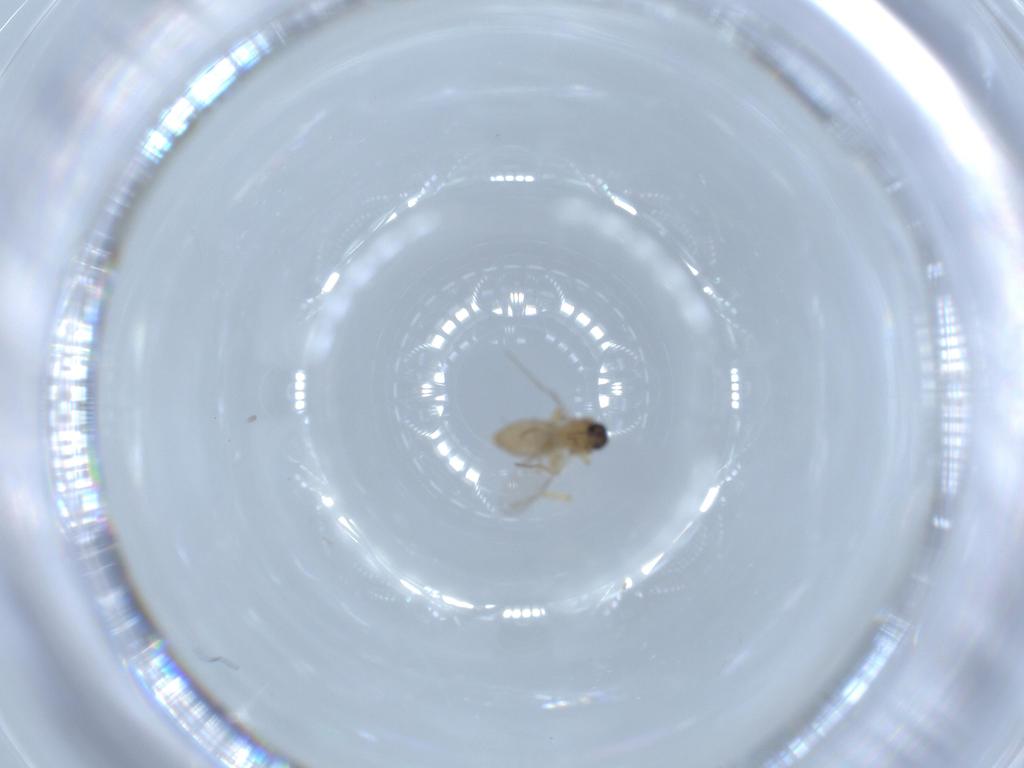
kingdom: Animalia
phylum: Arthropoda
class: Insecta
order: Diptera
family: Ceratopogonidae
